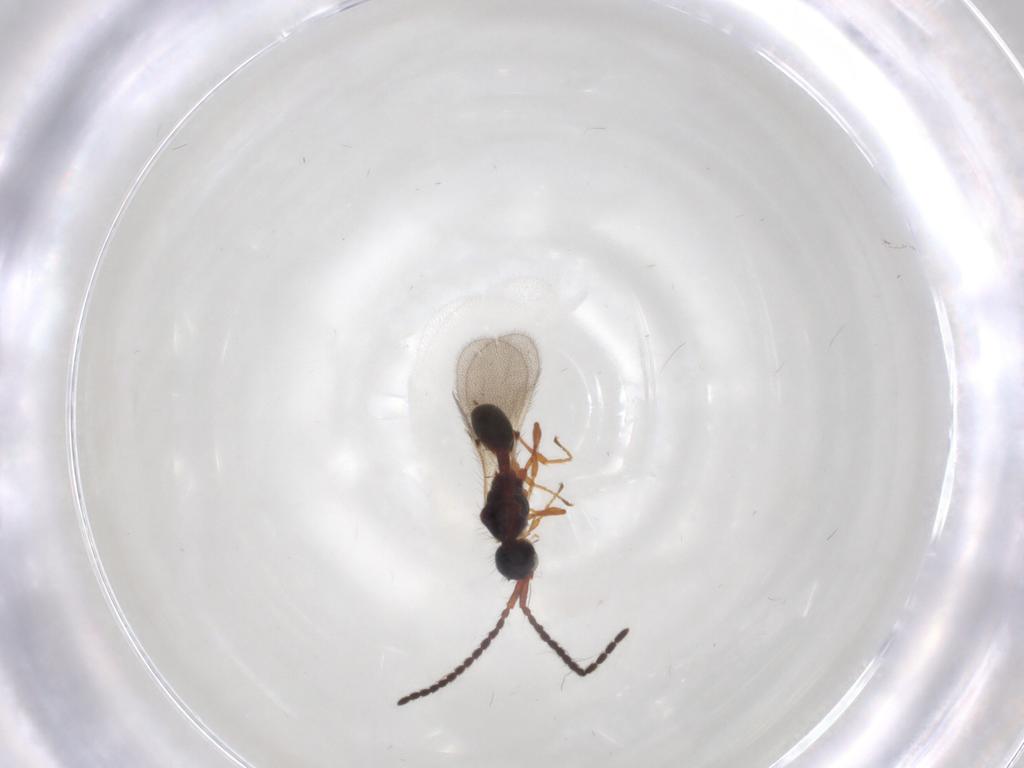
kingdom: Animalia
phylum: Arthropoda
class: Insecta
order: Hymenoptera
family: Diapriidae
